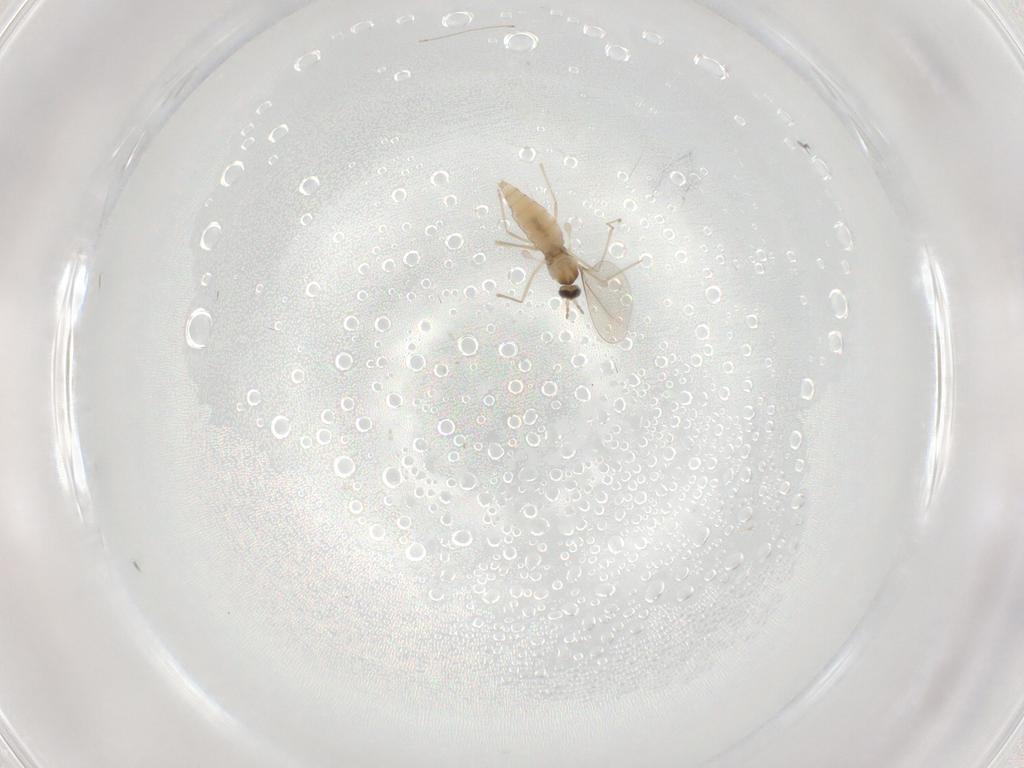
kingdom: Animalia
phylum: Arthropoda
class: Insecta
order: Diptera
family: Cecidomyiidae
